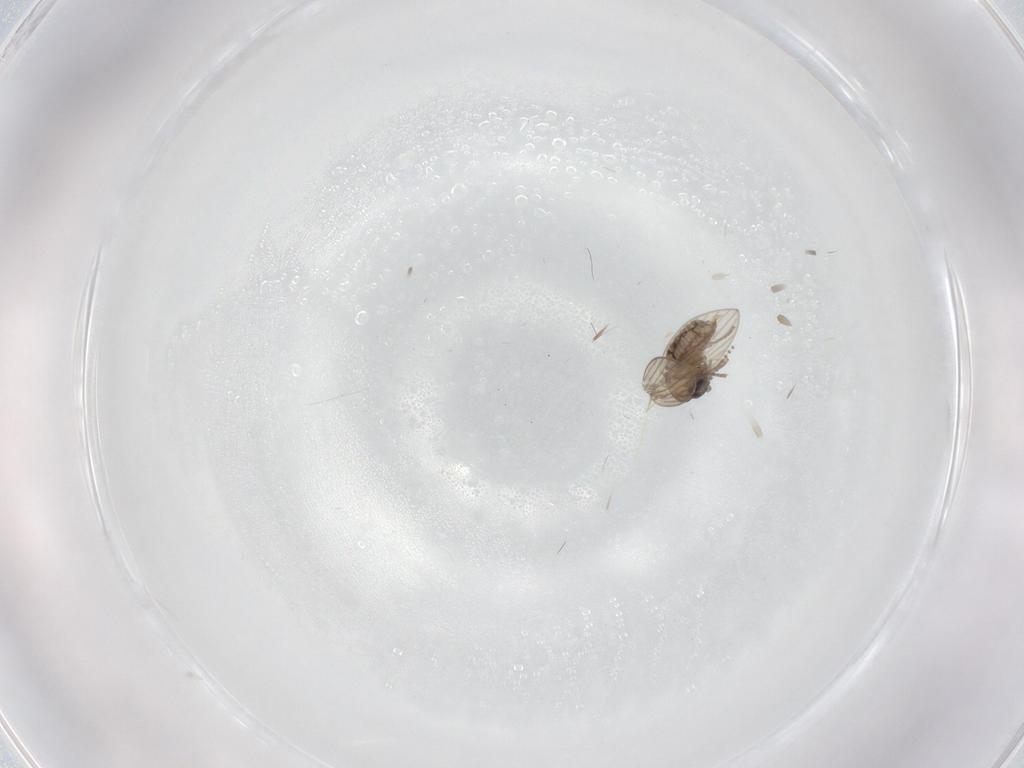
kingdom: Animalia
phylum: Arthropoda
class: Insecta
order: Diptera
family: Psychodidae
